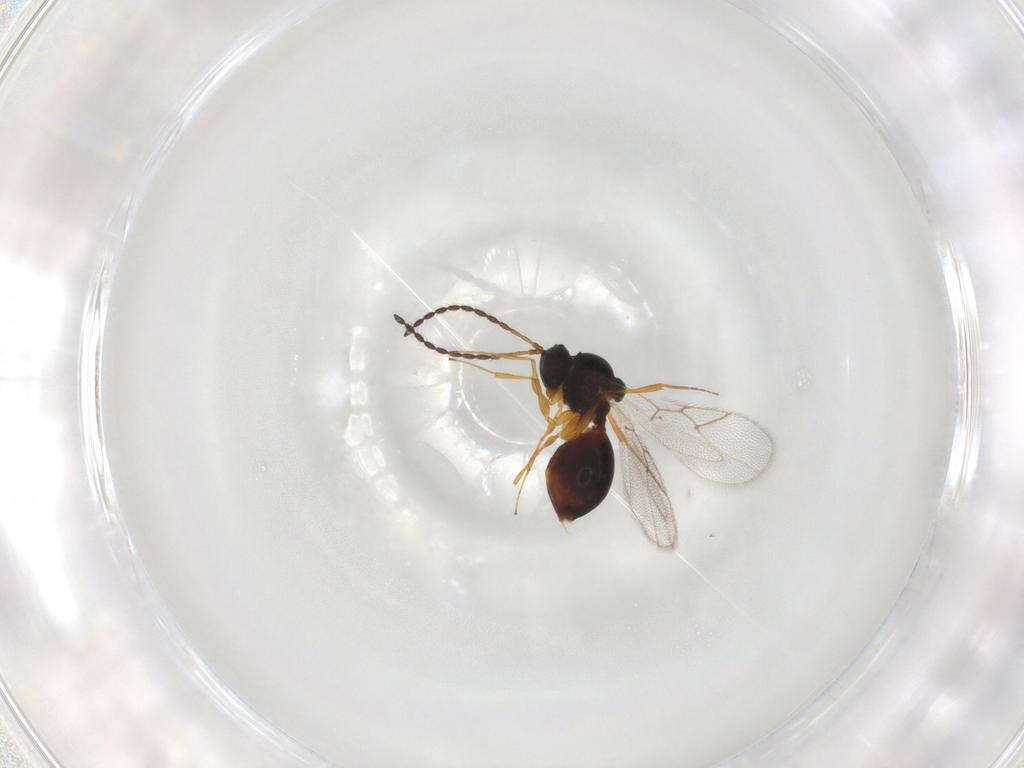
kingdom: Animalia
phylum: Arthropoda
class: Insecta
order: Hymenoptera
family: Figitidae
